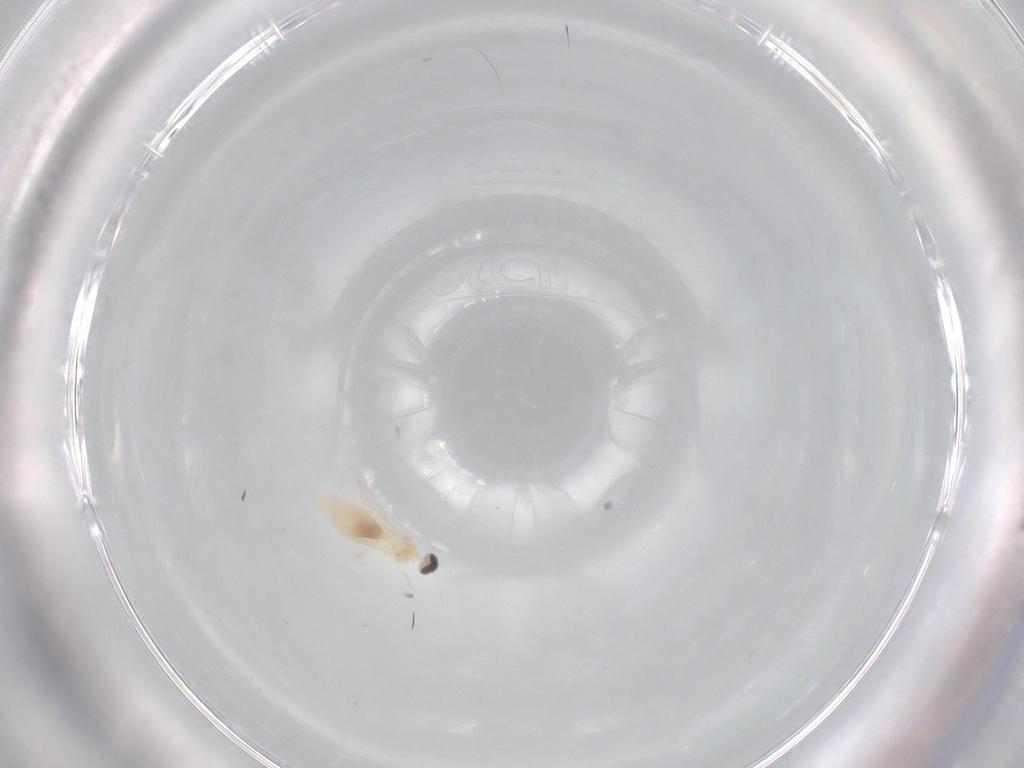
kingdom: Animalia
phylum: Arthropoda
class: Insecta
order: Diptera
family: Ceratopogonidae
